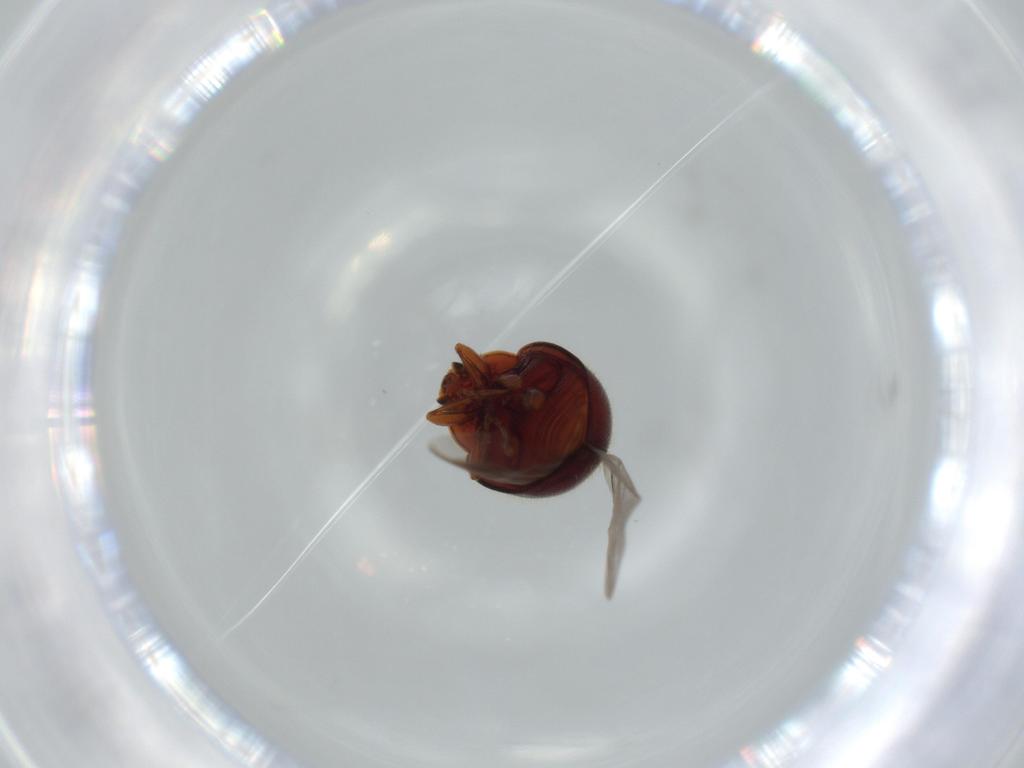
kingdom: Animalia
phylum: Arthropoda
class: Insecta
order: Coleoptera
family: Coccinellidae
